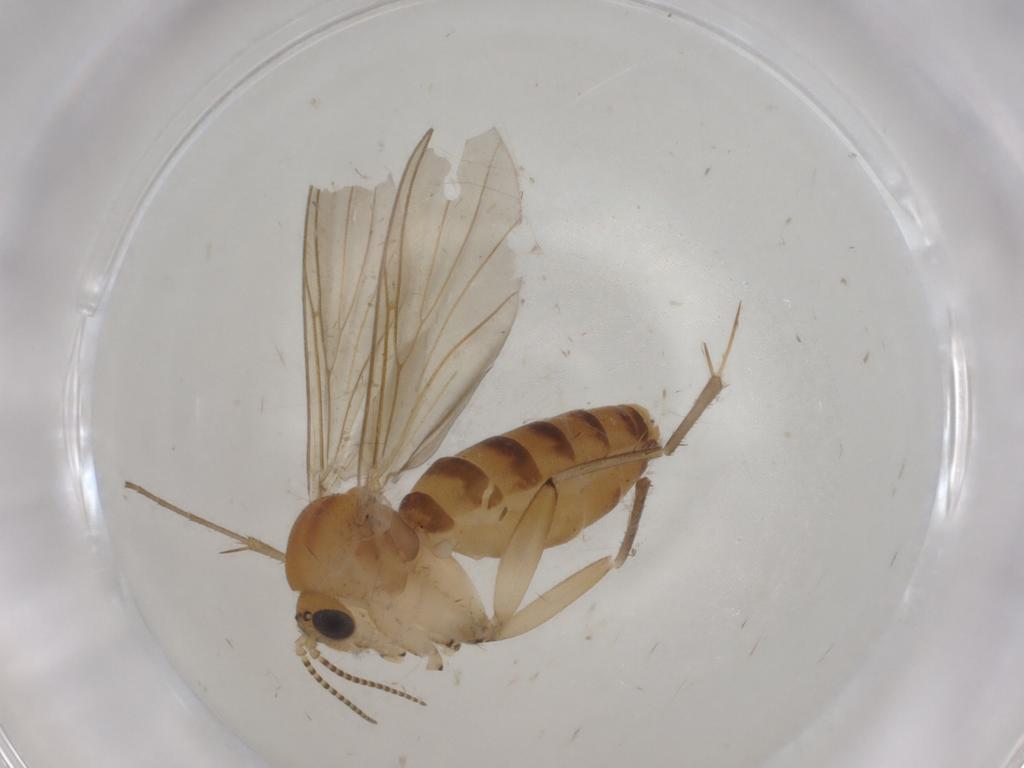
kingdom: Animalia
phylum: Arthropoda
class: Insecta
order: Diptera
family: Mycetophilidae
